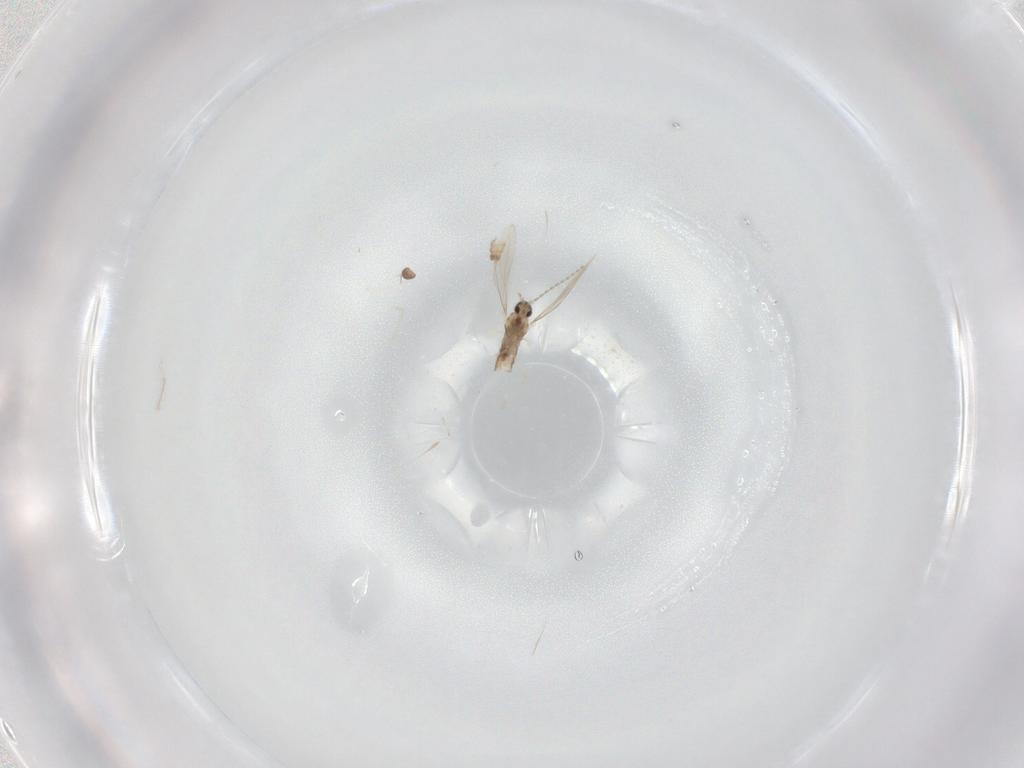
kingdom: Animalia
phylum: Arthropoda
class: Insecta
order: Diptera
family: Cecidomyiidae
